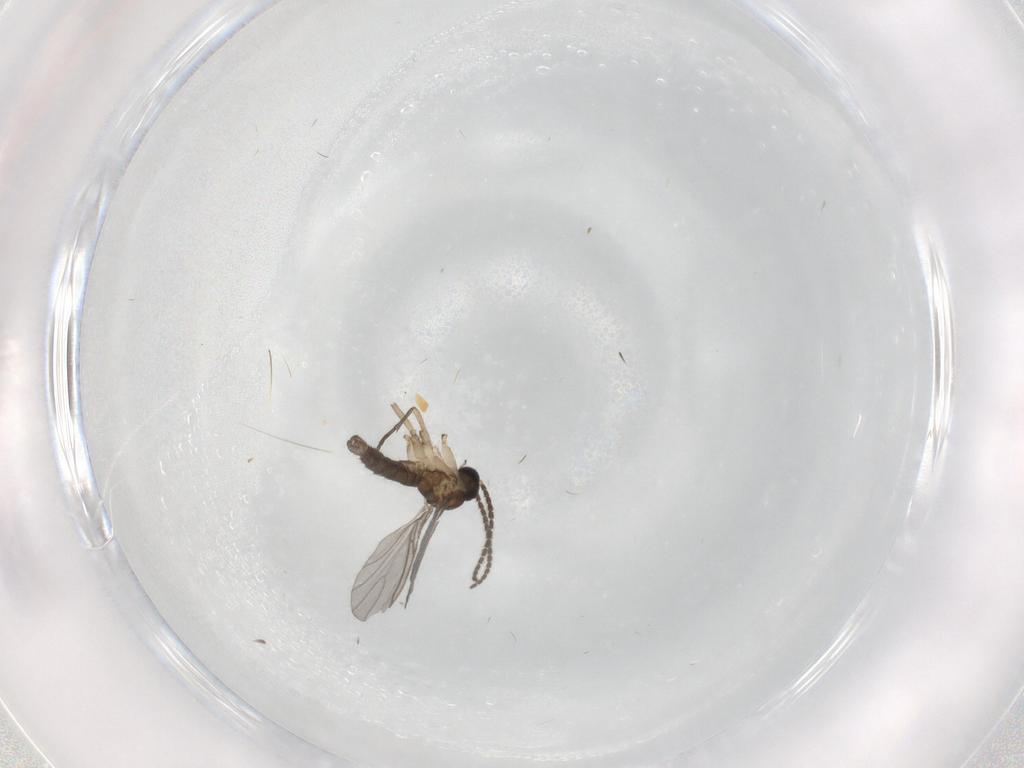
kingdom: Animalia
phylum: Arthropoda
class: Insecta
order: Diptera
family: Sciaridae
